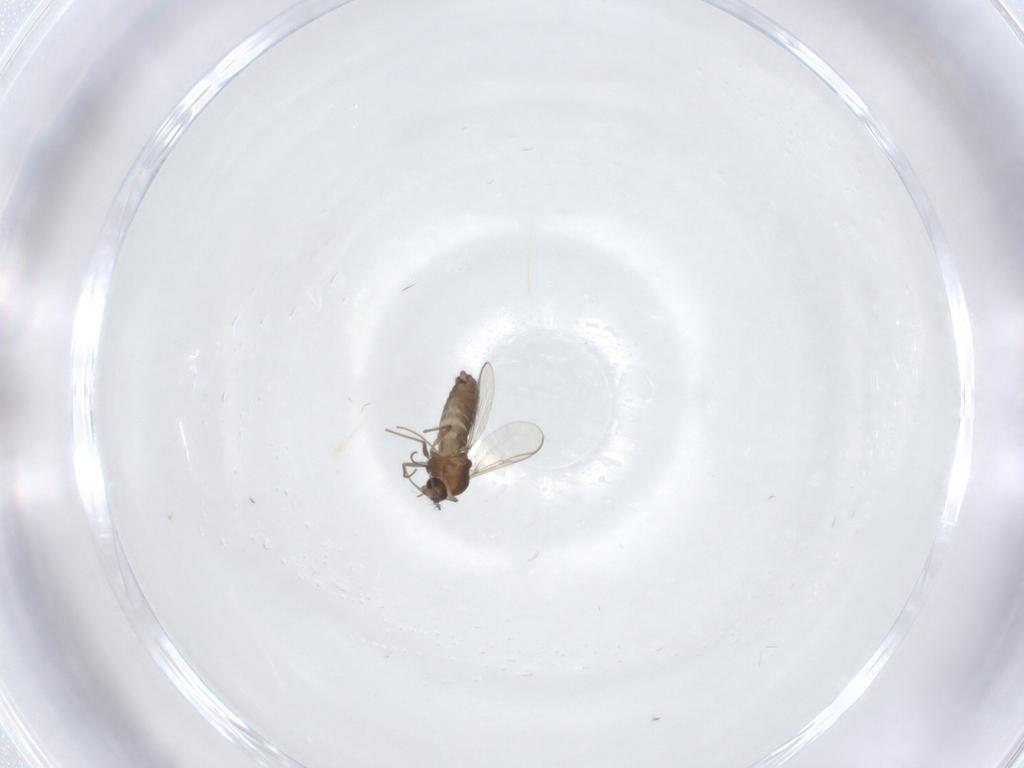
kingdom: Animalia
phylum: Arthropoda
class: Insecta
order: Diptera
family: Chironomidae
